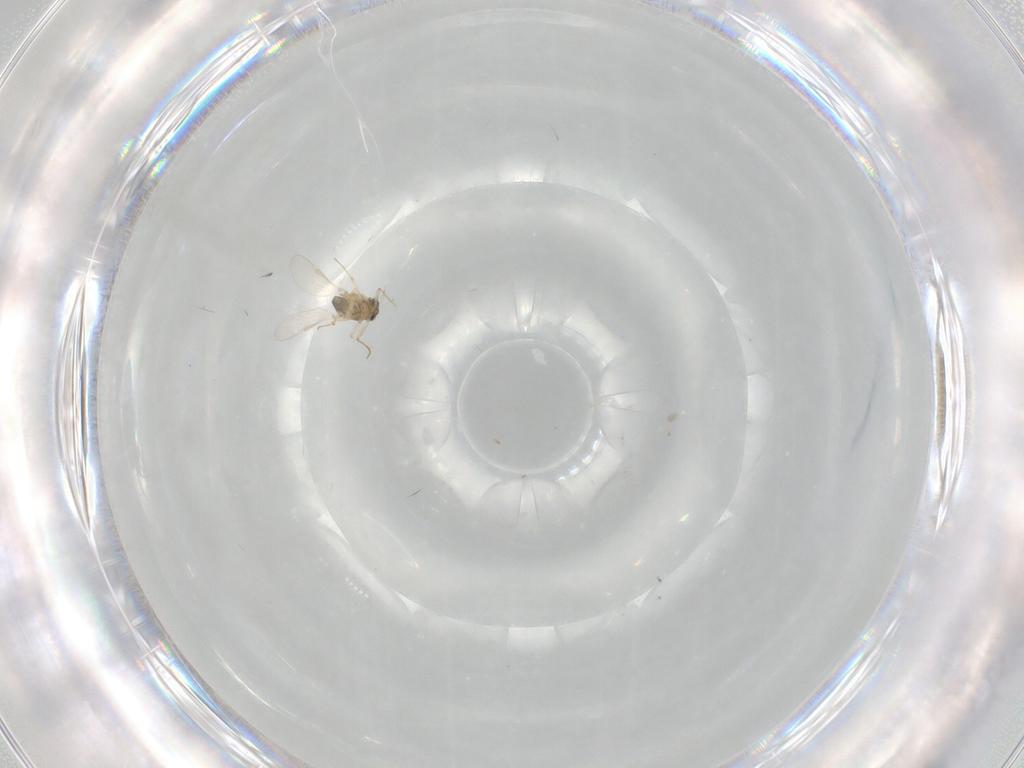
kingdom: Animalia
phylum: Arthropoda
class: Insecta
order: Diptera
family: Chironomidae
